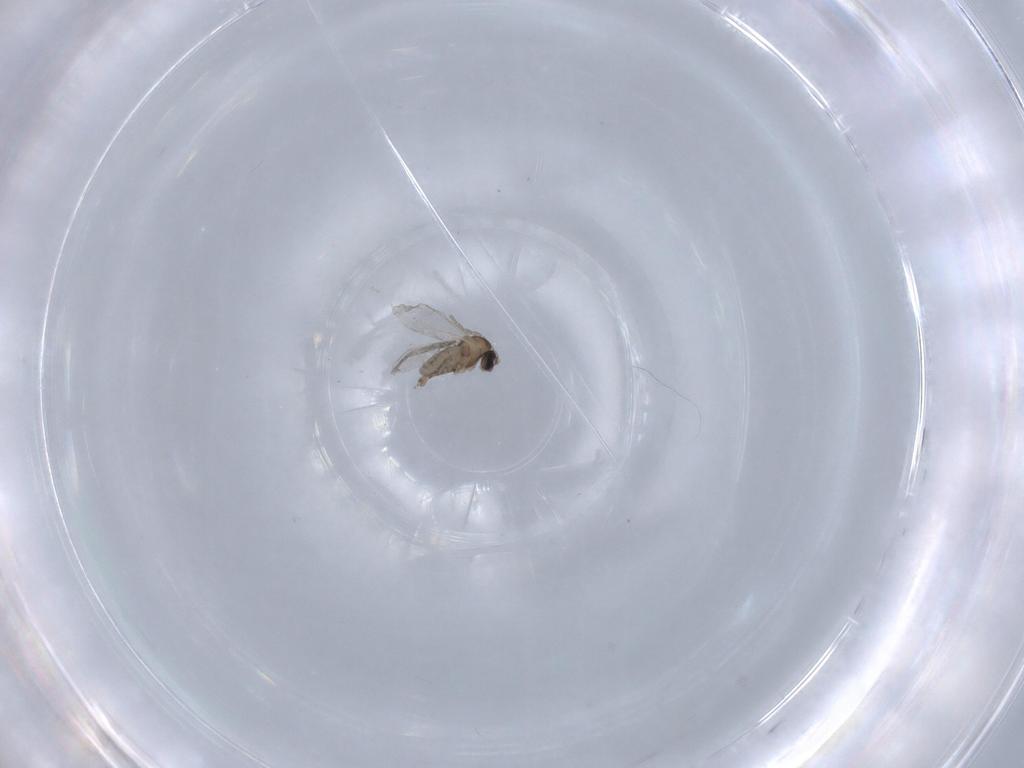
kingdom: Animalia
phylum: Arthropoda
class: Insecta
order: Diptera
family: Cecidomyiidae
